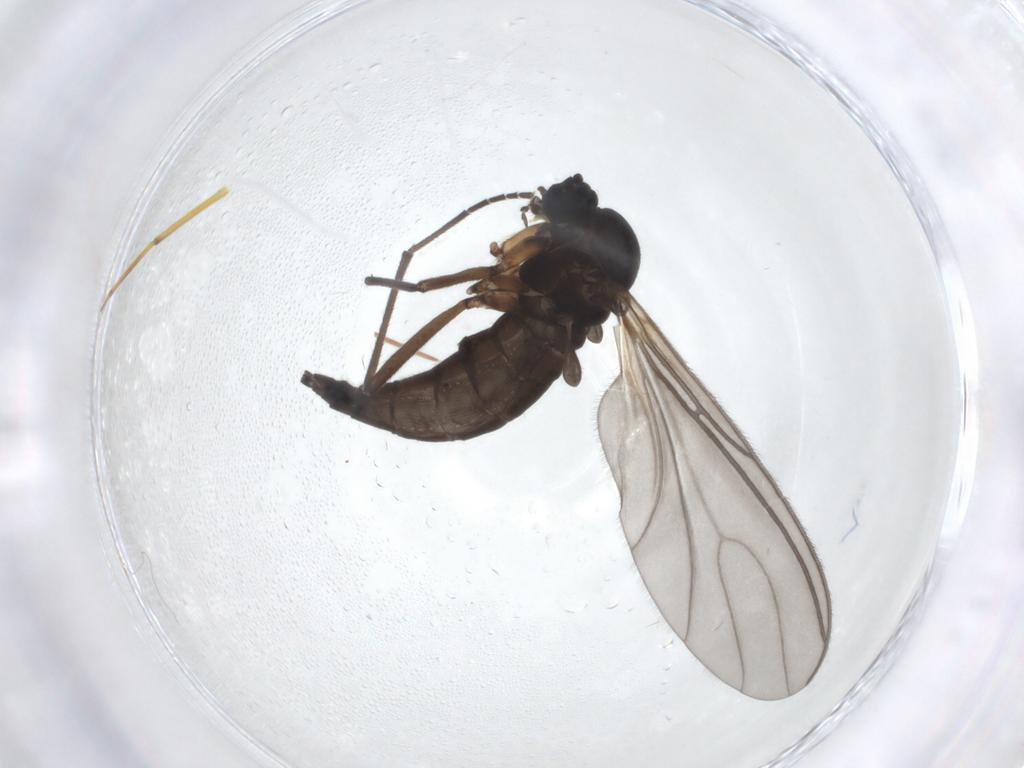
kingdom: Animalia
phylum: Arthropoda
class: Insecta
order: Diptera
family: Sciaridae
